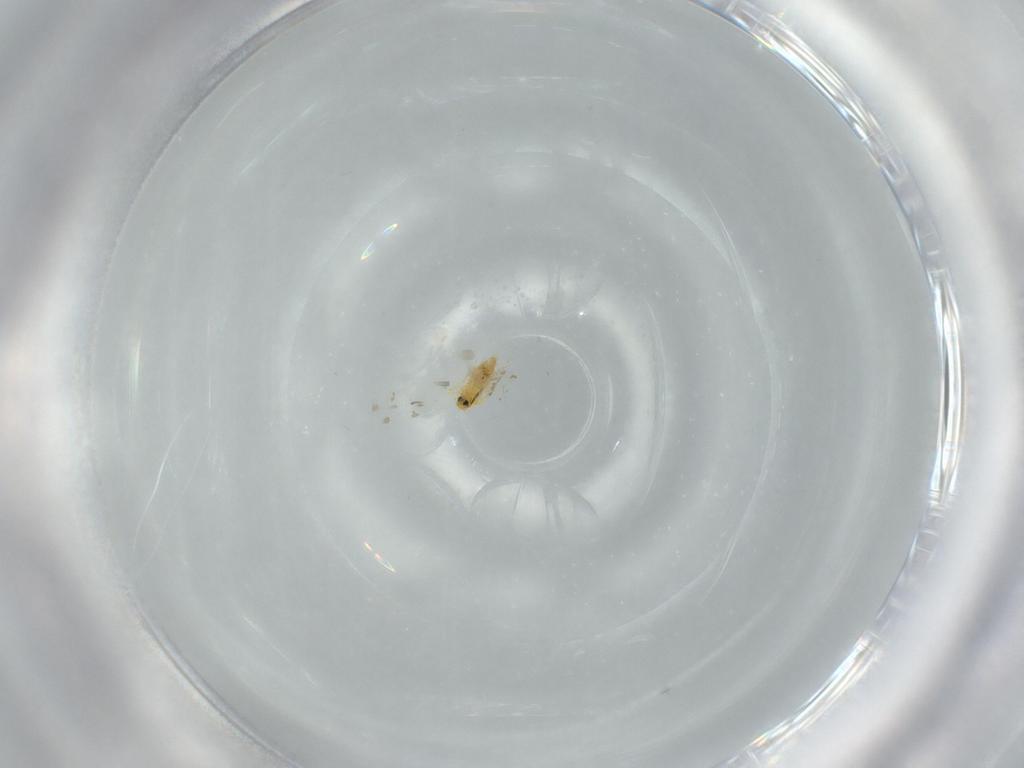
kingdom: Animalia
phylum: Arthropoda
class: Insecta
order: Hemiptera
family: Aleyrodidae
